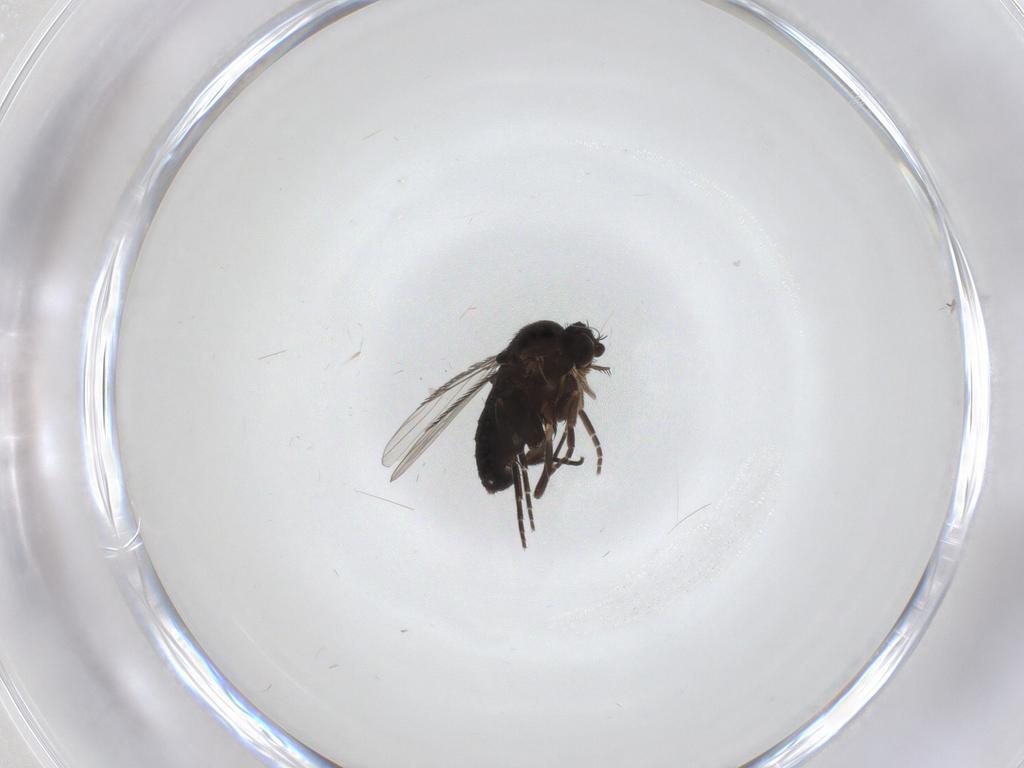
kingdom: Animalia
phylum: Arthropoda
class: Insecta
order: Diptera
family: Phoridae
